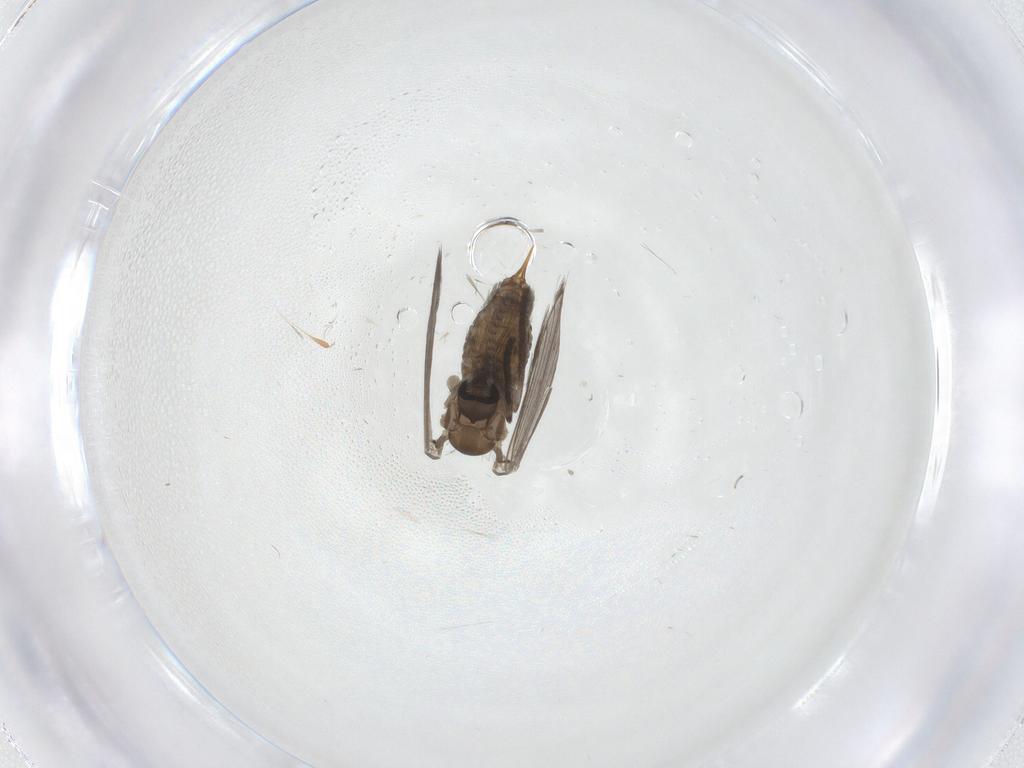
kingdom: Animalia
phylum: Arthropoda
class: Insecta
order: Diptera
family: Psychodidae
